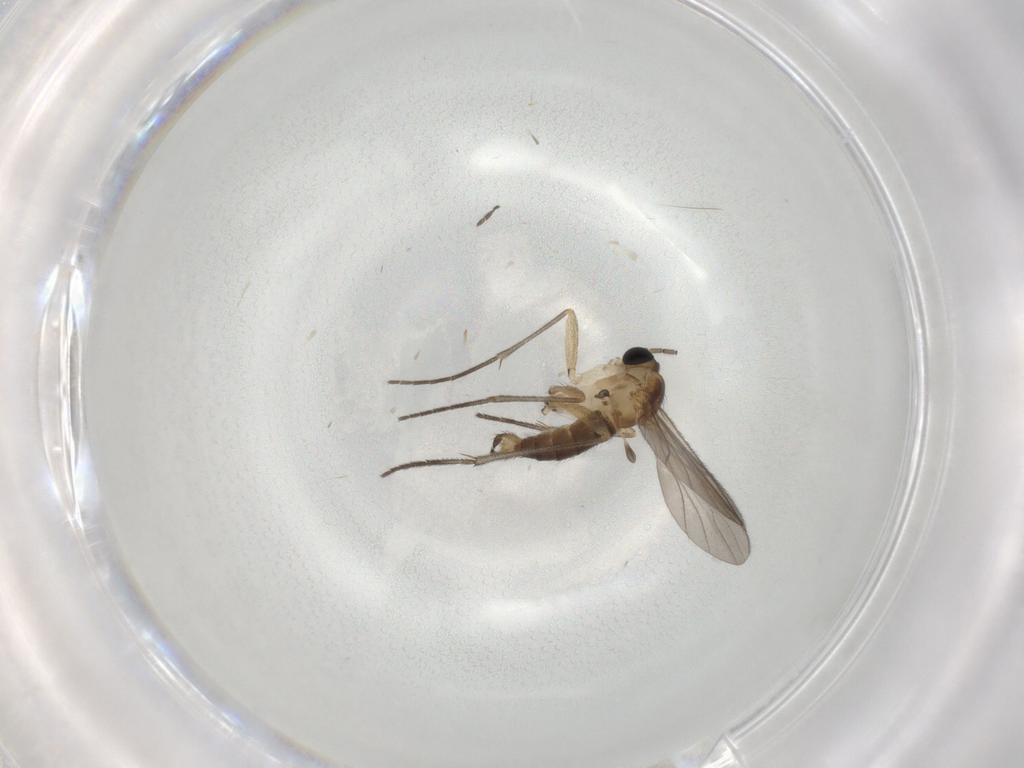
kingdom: Animalia
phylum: Arthropoda
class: Insecta
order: Diptera
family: Sciaridae
